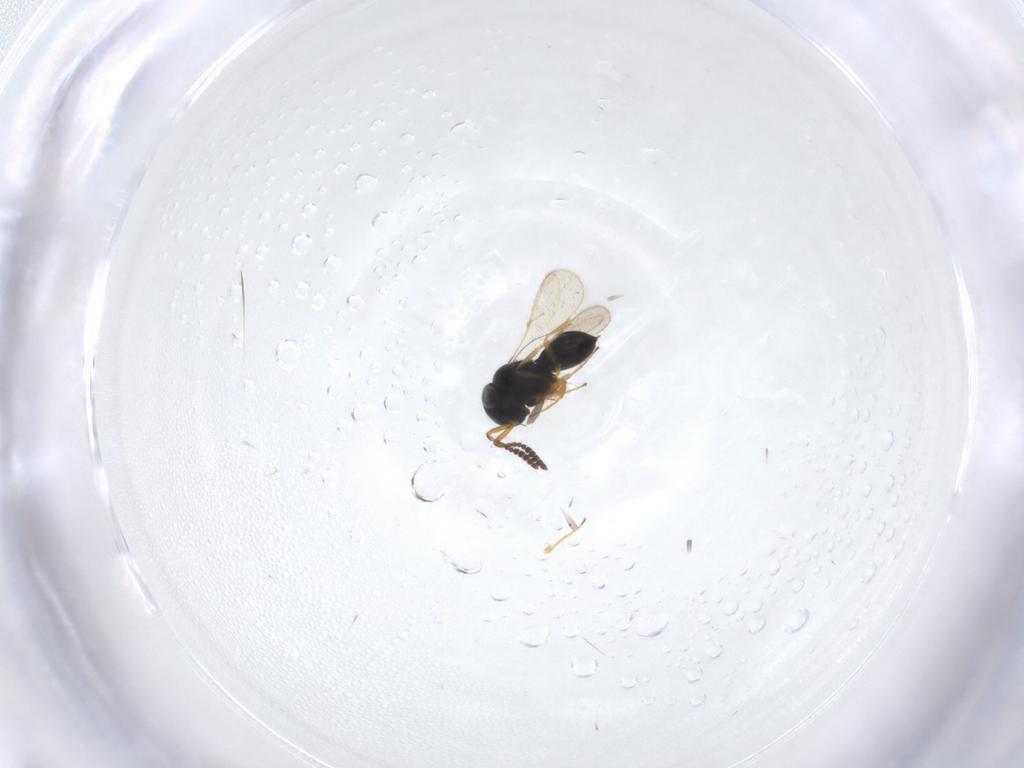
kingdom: Animalia
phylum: Arthropoda
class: Insecta
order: Hymenoptera
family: Scelionidae
